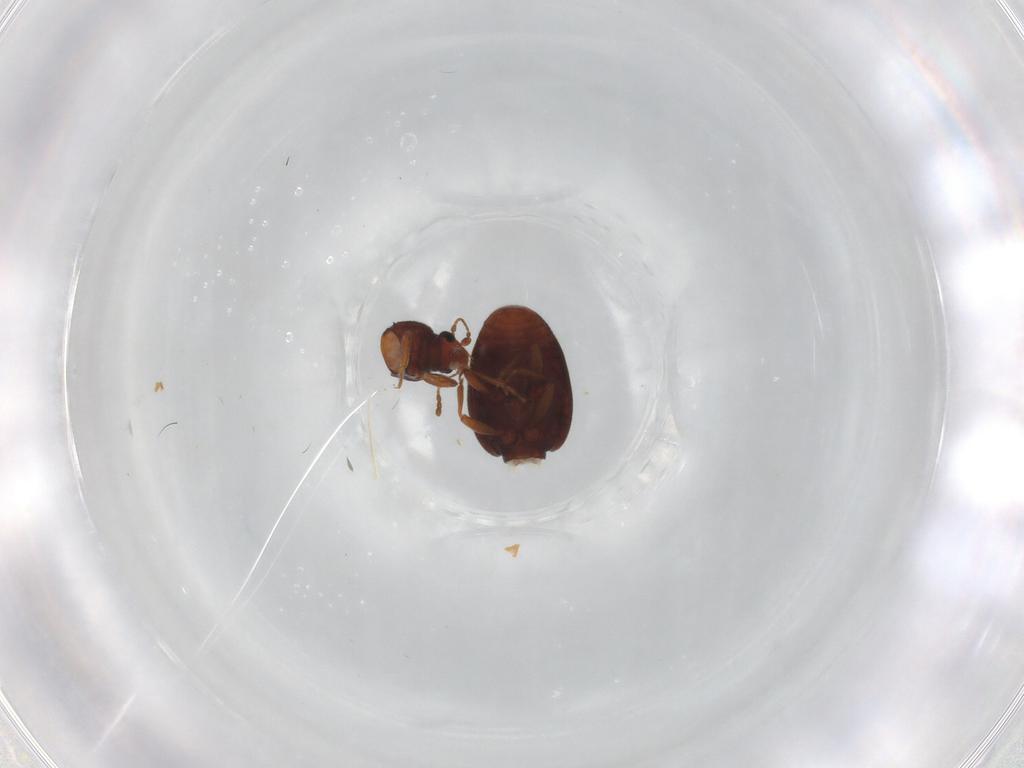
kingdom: Animalia
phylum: Arthropoda
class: Insecta
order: Coleoptera
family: Latridiidae
